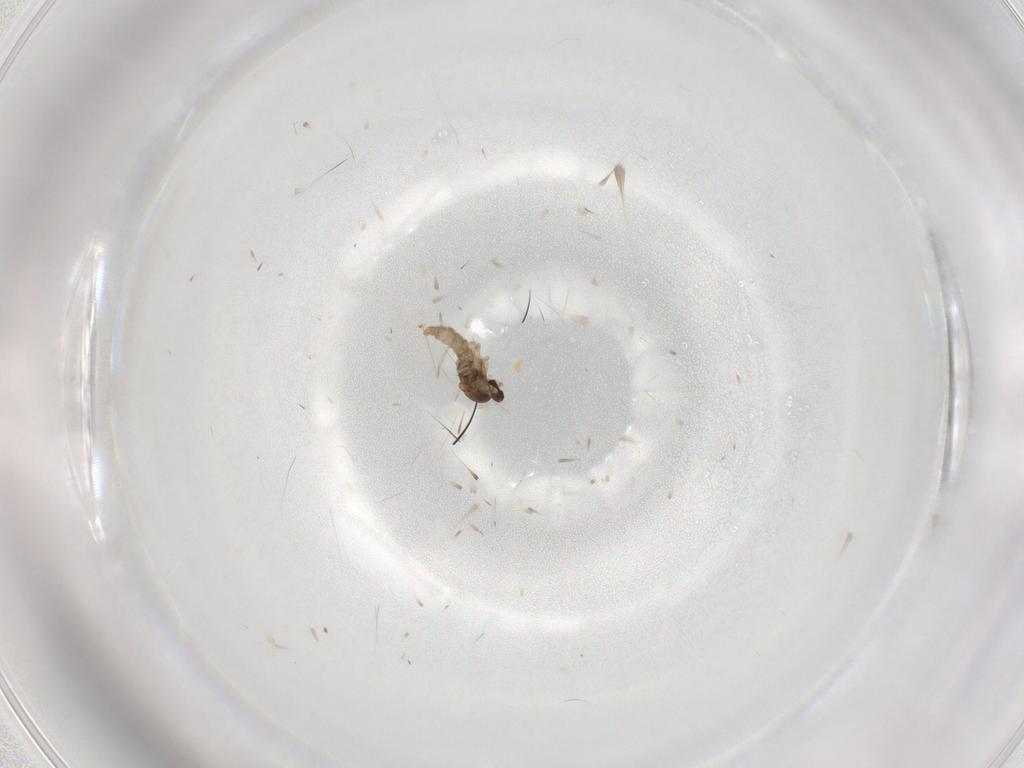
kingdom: Animalia
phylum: Arthropoda
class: Insecta
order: Diptera
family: Cecidomyiidae
